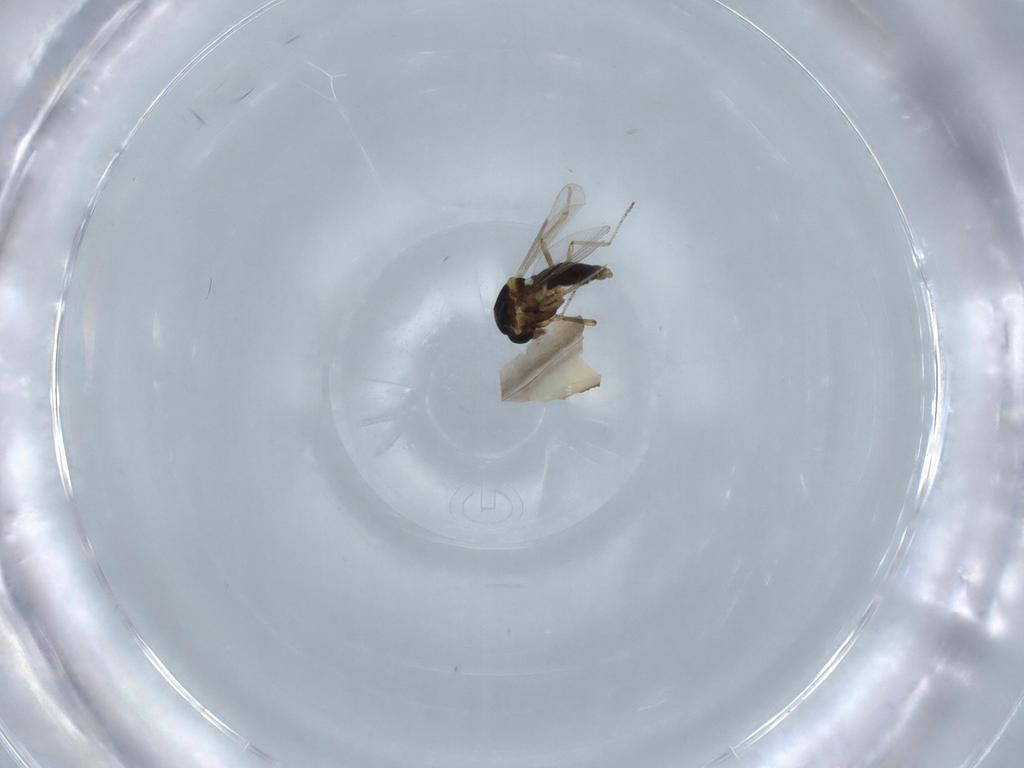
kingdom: Animalia
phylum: Arthropoda
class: Insecta
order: Diptera
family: Ceratopogonidae
